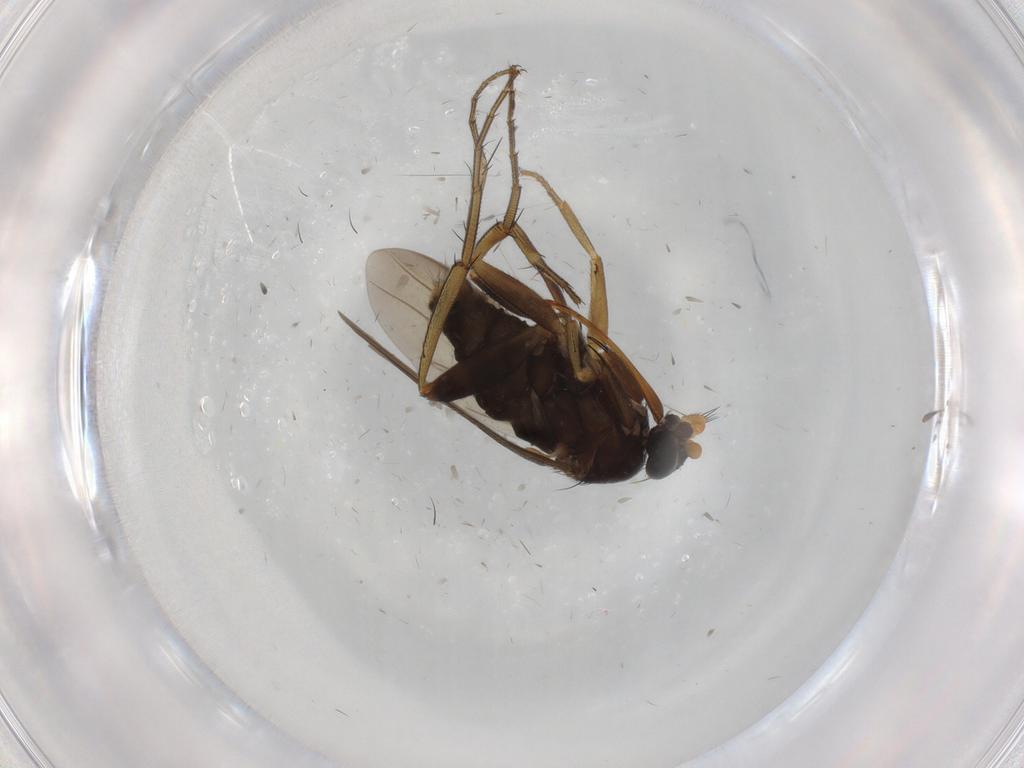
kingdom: Animalia
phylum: Arthropoda
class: Insecta
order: Diptera
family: Phoridae
